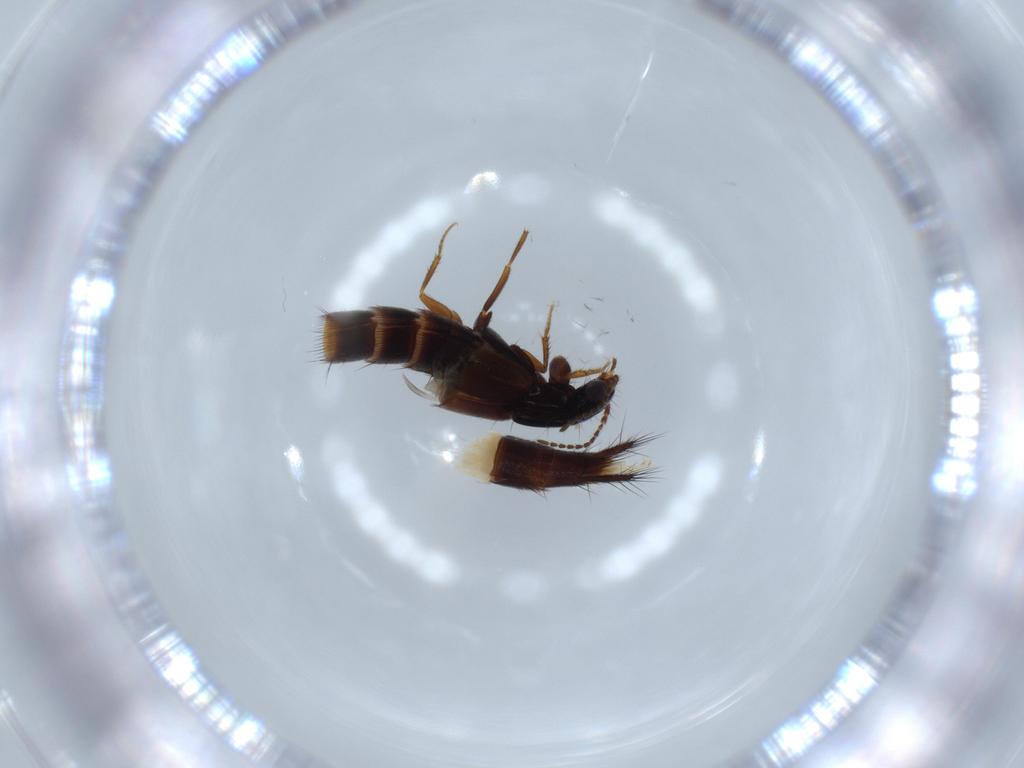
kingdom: Animalia
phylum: Arthropoda
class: Insecta
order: Coleoptera
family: Staphylinidae
